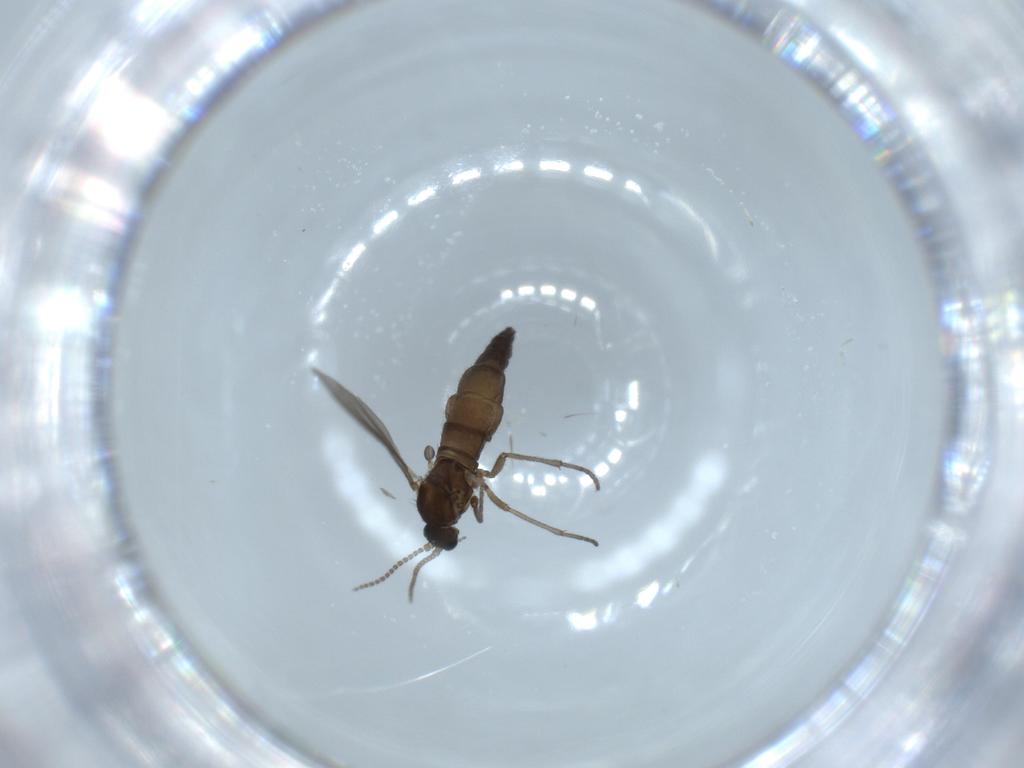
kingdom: Animalia
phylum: Arthropoda
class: Insecta
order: Diptera
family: Sciaridae
